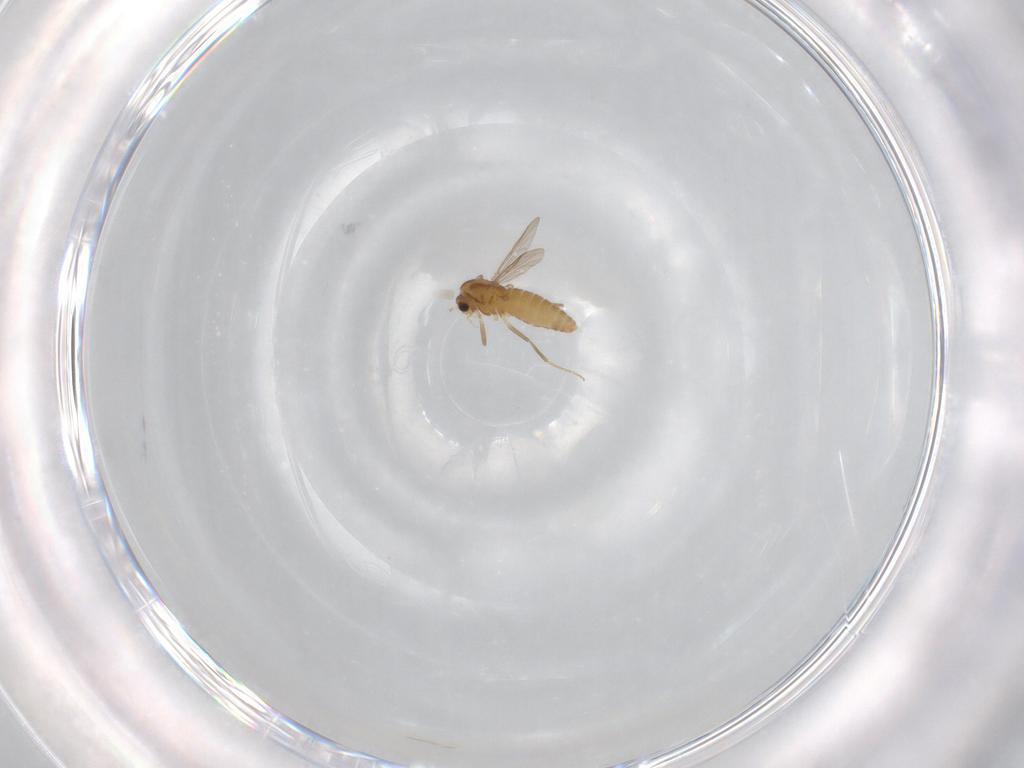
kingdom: Animalia
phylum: Arthropoda
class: Insecta
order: Diptera
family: Chironomidae
